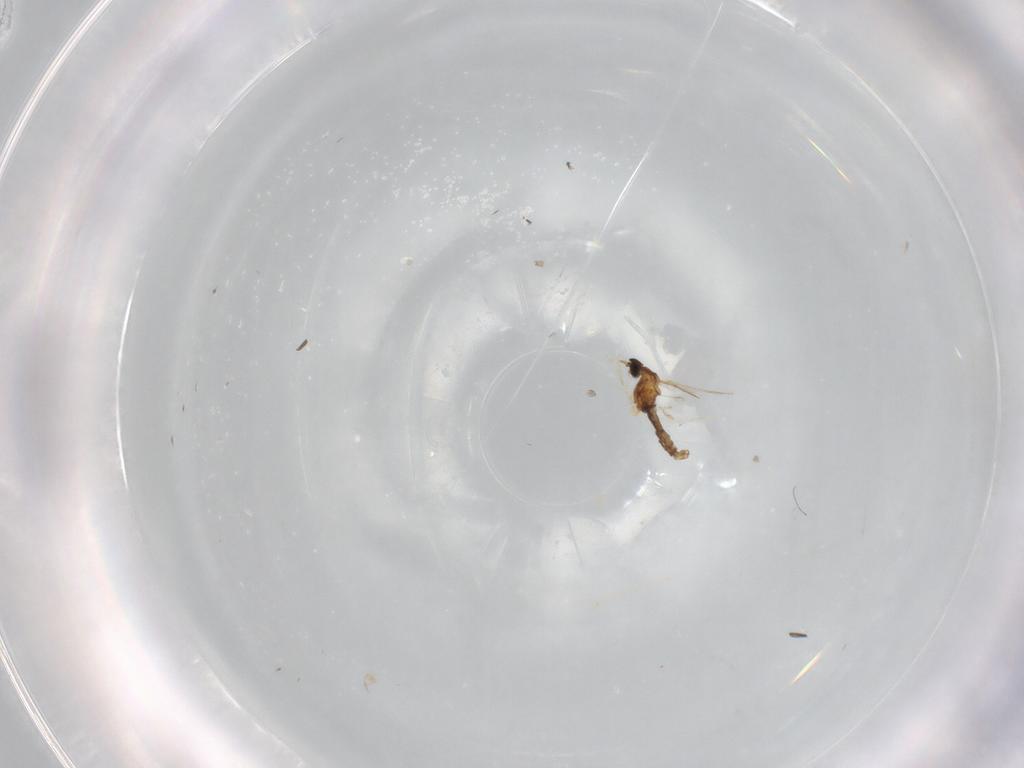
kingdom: Animalia
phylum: Arthropoda
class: Insecta
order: Diptera
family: Cecidomyiidae
